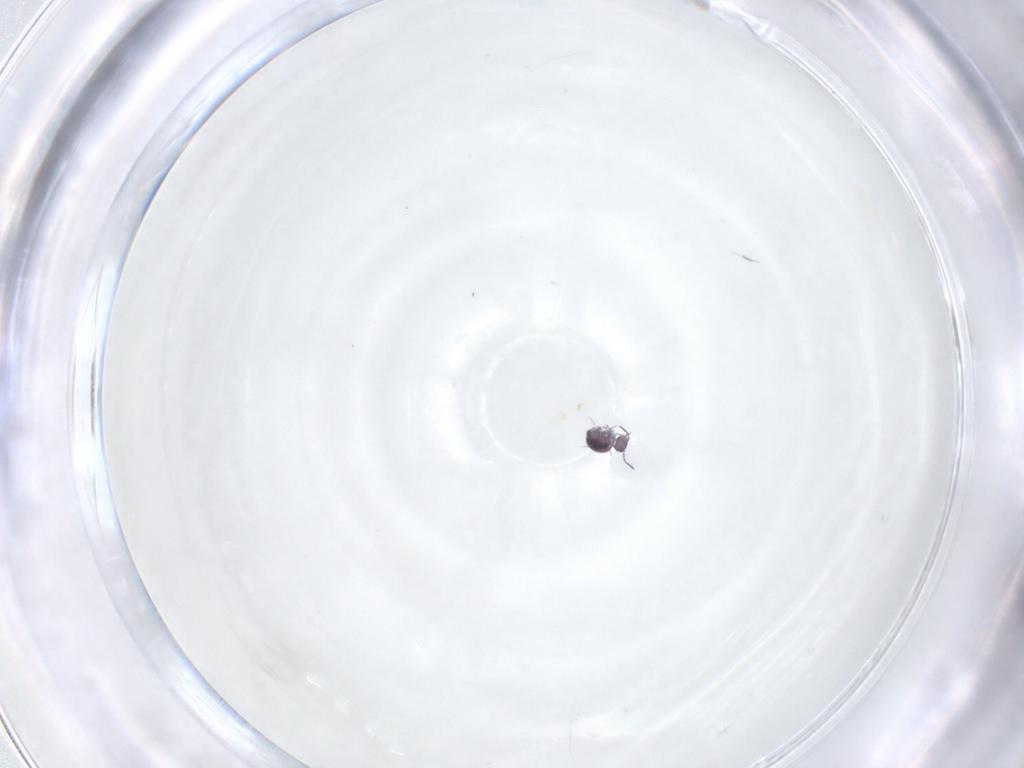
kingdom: Animalia
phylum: Arthropoda
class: Collembola
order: Symphypleona
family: Sminthurididae
